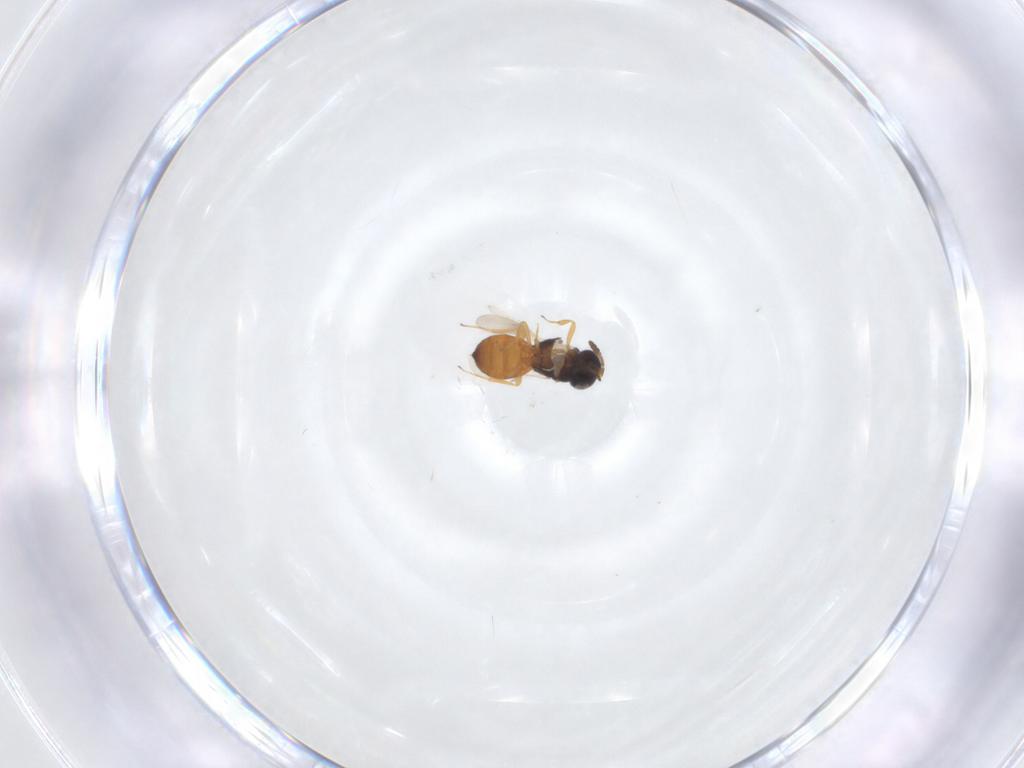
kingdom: Animalia
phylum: Arthropoda
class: Insecta
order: Hymenoptera
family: Scelionidae
